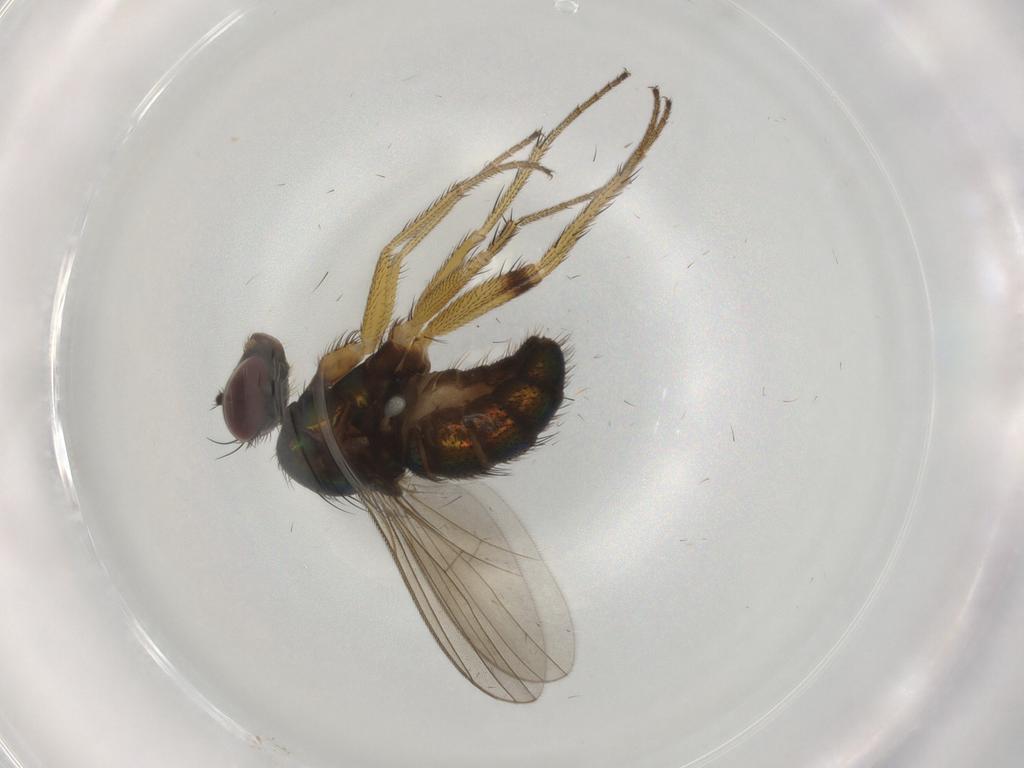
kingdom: Animalia
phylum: Arthropoda
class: Insecta
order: Diptera
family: Dolichopodidae
